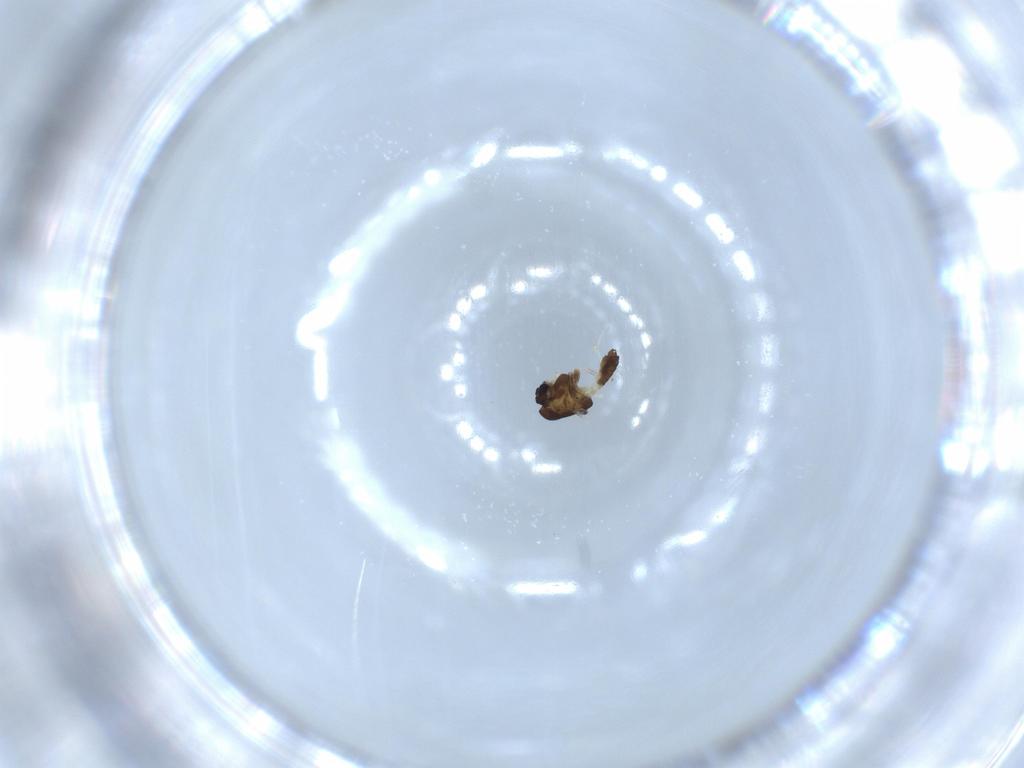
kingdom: Animalia
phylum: Arthropoda
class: Insecta
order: Diptera
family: Chironomidae
